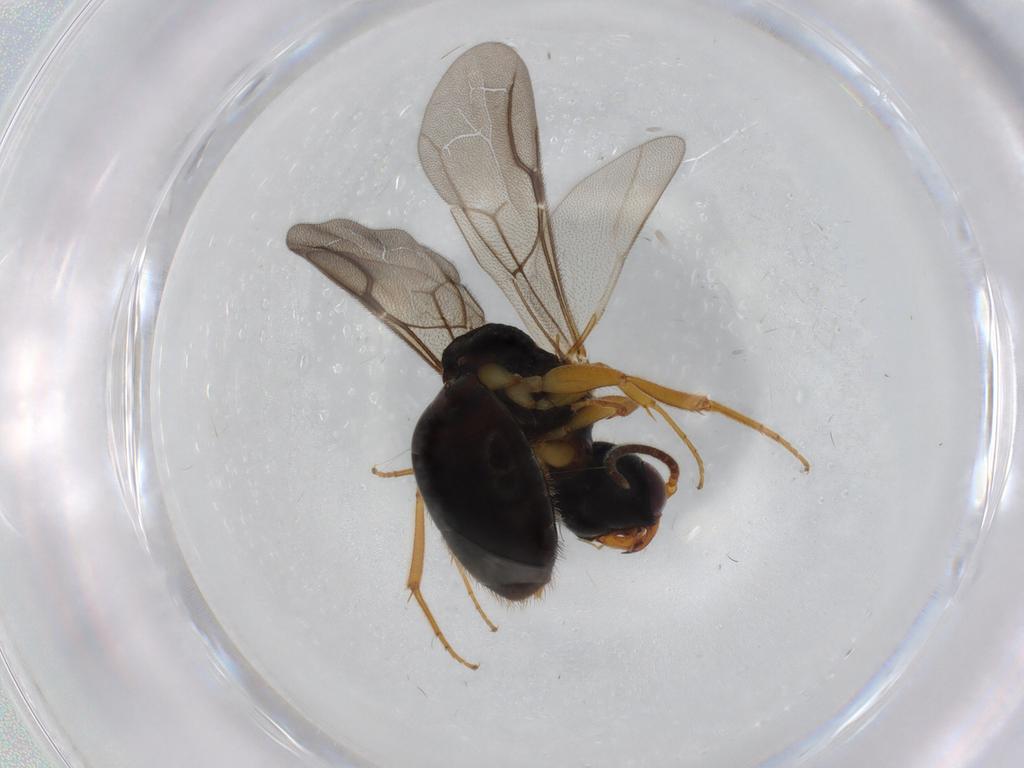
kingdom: Animalia
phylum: Arthropoda
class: Insecta
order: Hymenoptera
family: Bethylidae
